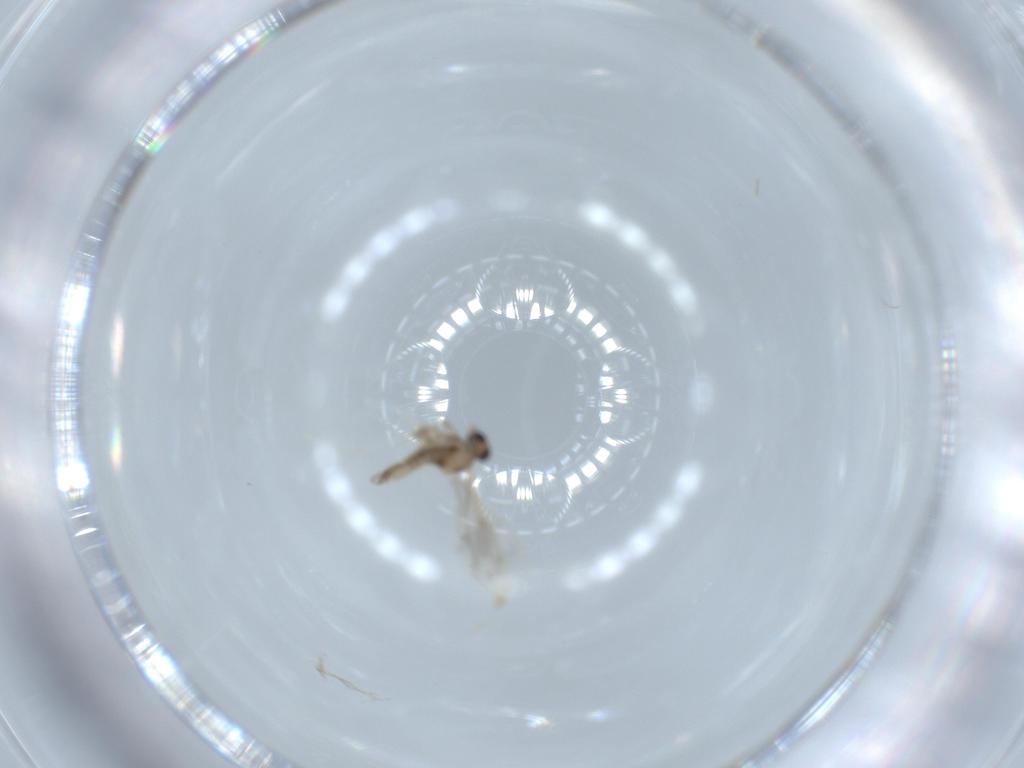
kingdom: Animalia
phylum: Arthropoda
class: Insecta
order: Diptera
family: Cecidomyiidae
